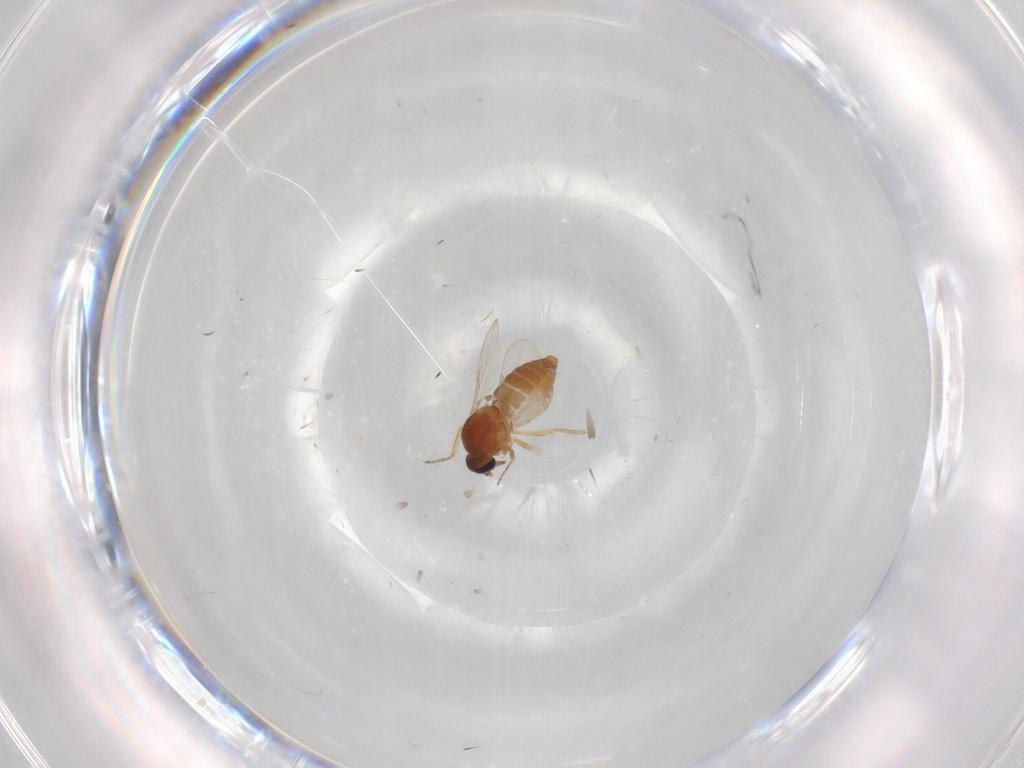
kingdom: Animalia
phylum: Arthropoda
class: Insecta
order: Diptera
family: Ceratopogonidae
